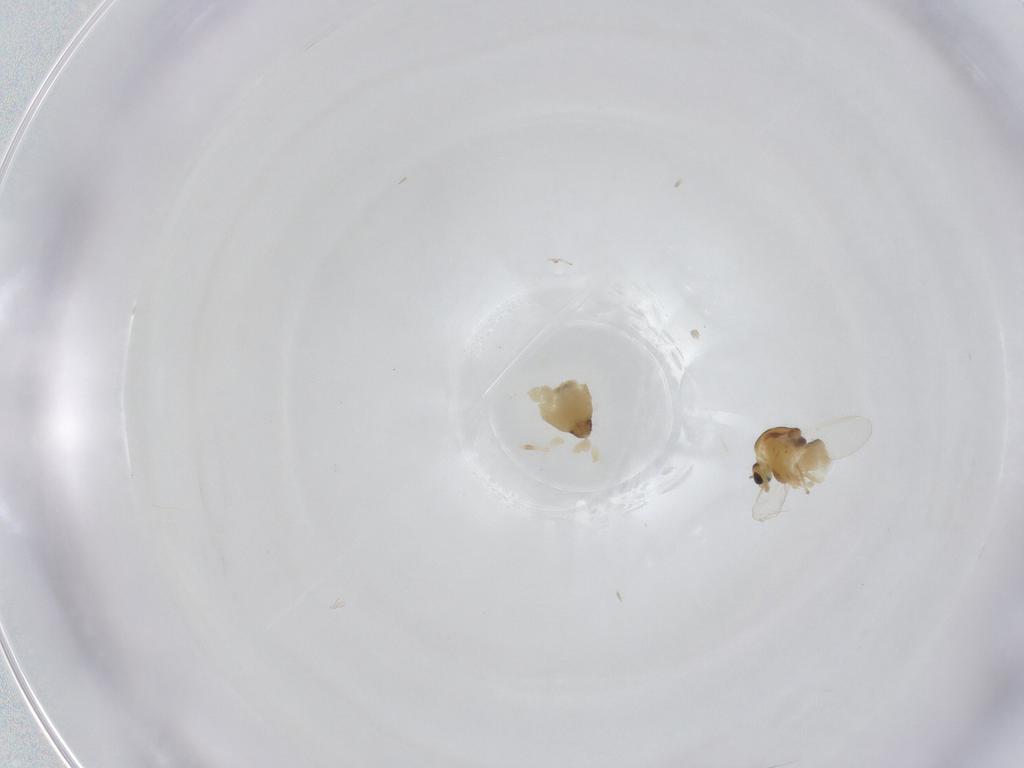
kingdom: Animalia
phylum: Arthropoda
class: Insecta
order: Diptera
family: Chironomidae
